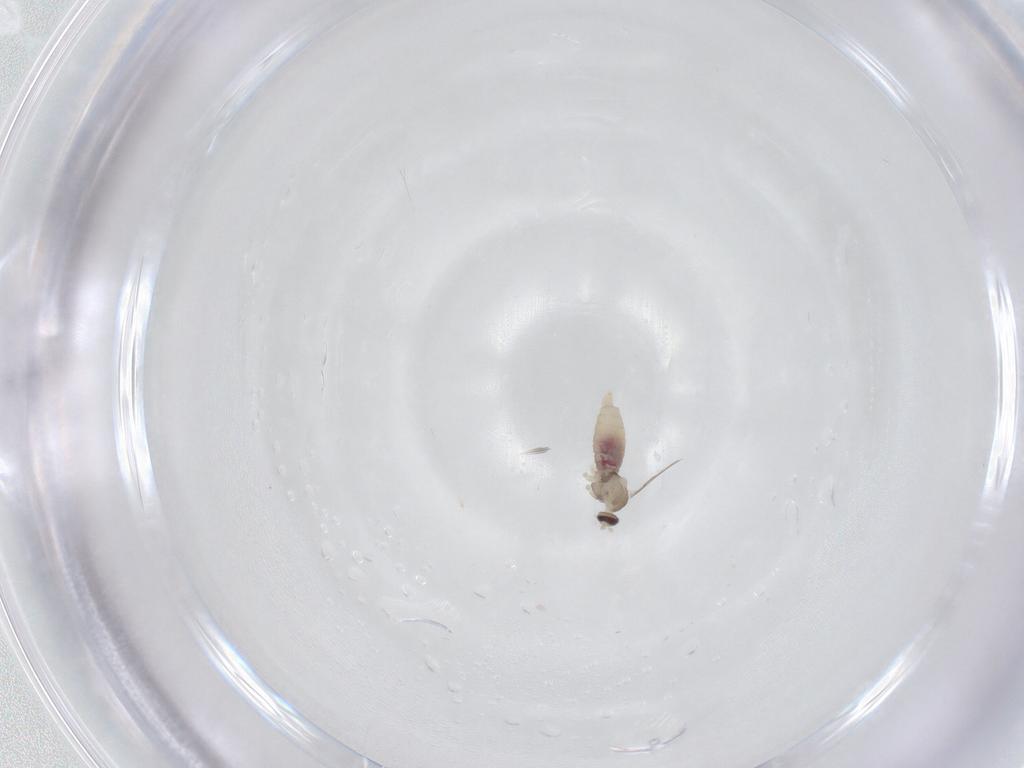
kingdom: Animalia
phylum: Arthropoda
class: Insecta
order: Diptera
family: Cecidomyiidae
